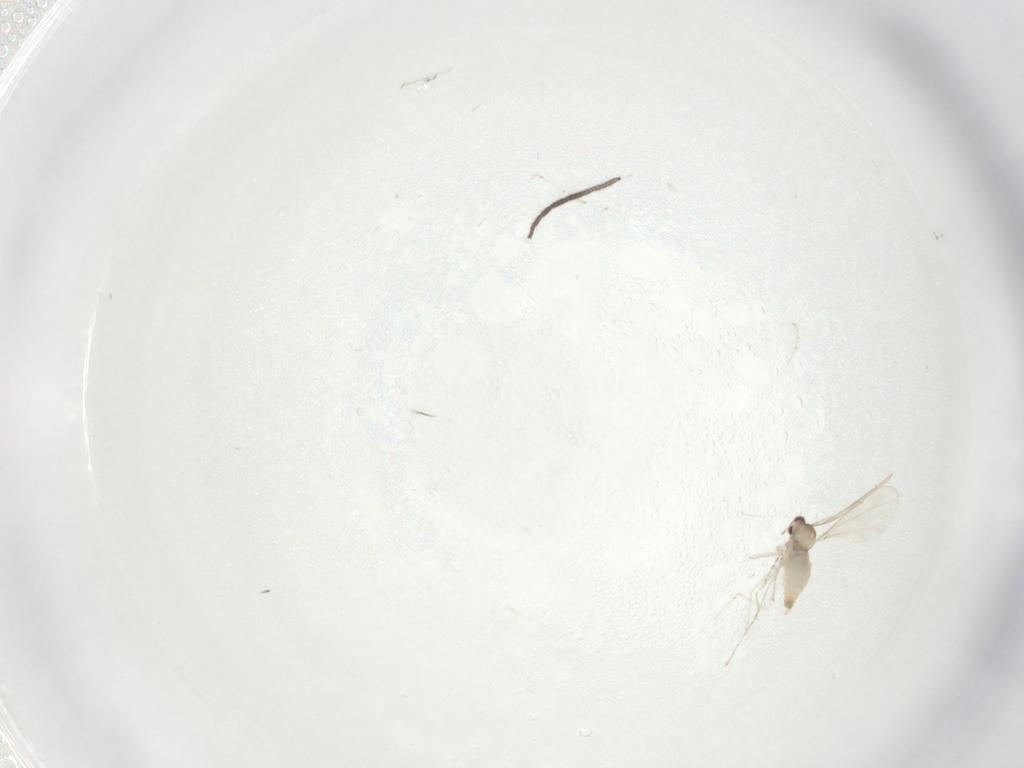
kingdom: Animalia
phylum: Arthropoda
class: Insecta
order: Diptera
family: Cecidomyiidae
